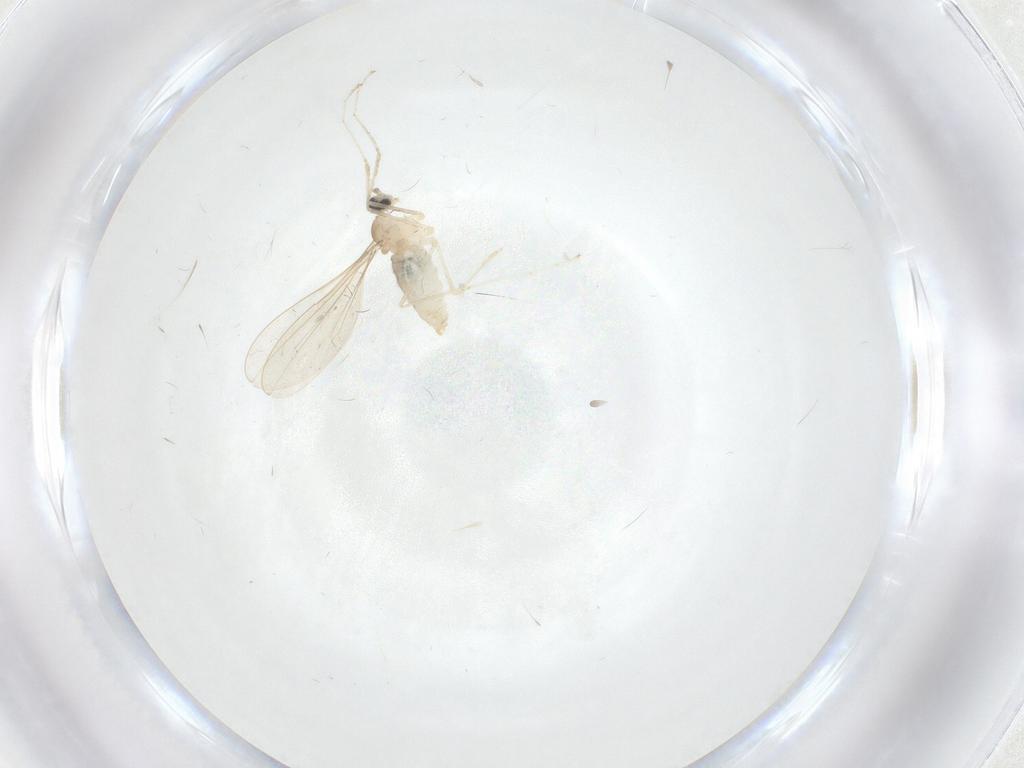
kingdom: Animalia
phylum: Arthropoda
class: Insecta
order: Diptera
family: Cecidomyiidae
